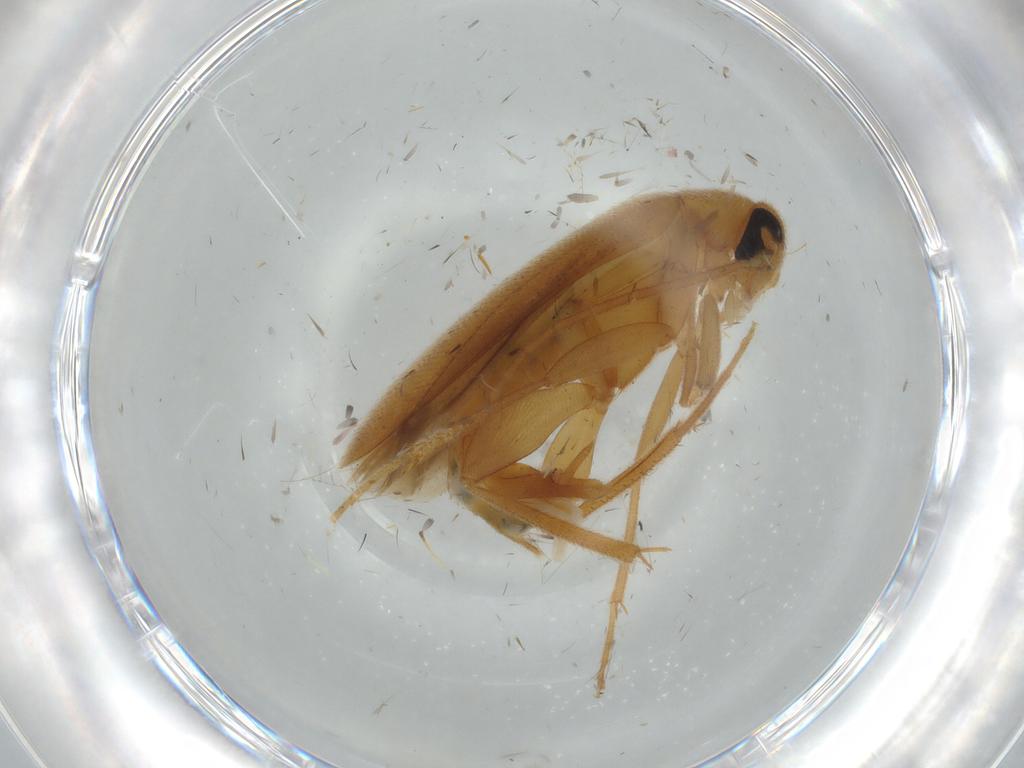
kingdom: Animalia
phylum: Arthropoda
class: Insecta
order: Coleoptera
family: Scraptiidae
